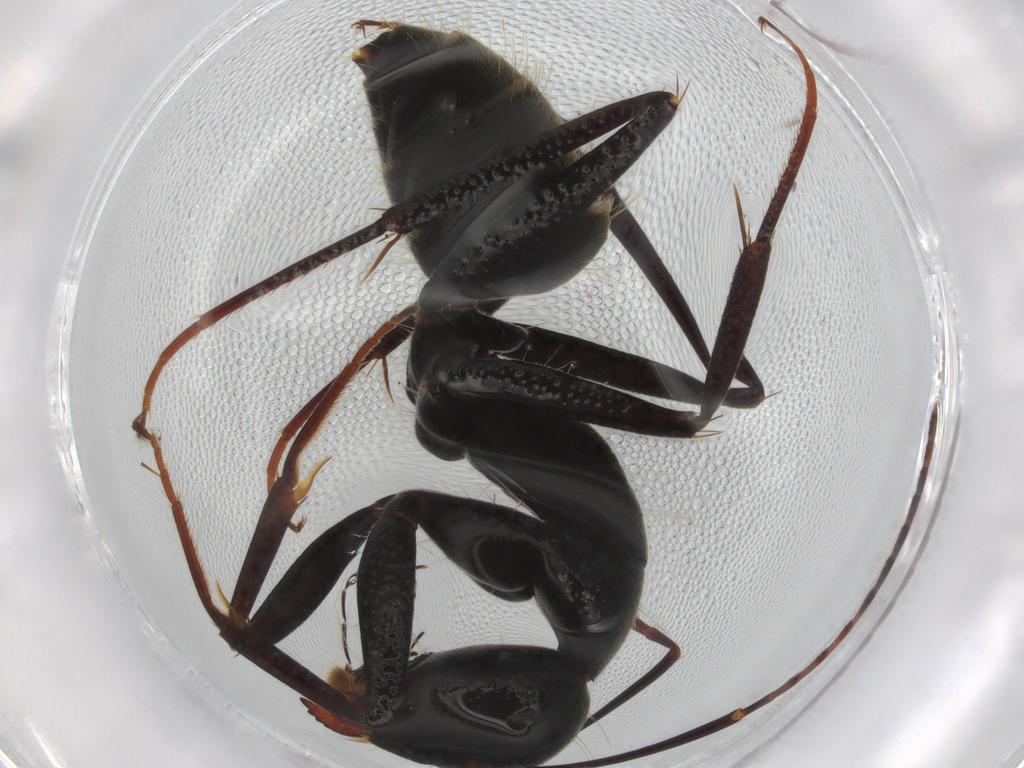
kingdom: Animalia
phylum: Arthropoda
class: Insecta
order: Hymenoptera
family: Formicidae
